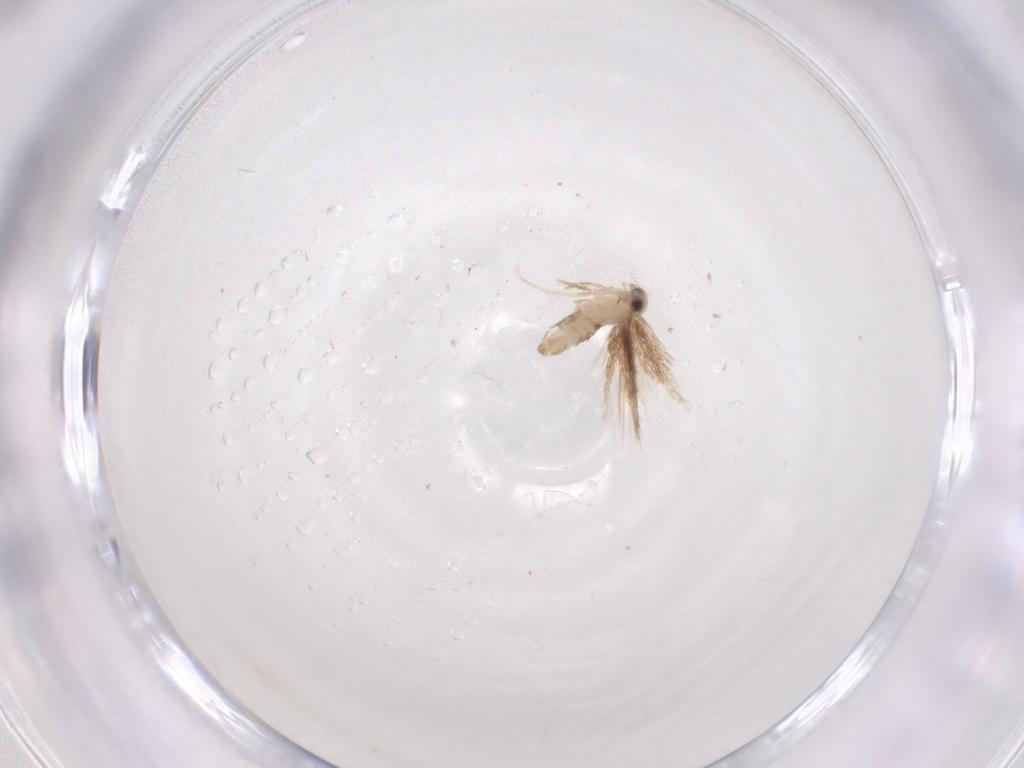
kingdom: Animalia
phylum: Arthropoda
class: Insecta
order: Lepidoptera
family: Nepticulidae
